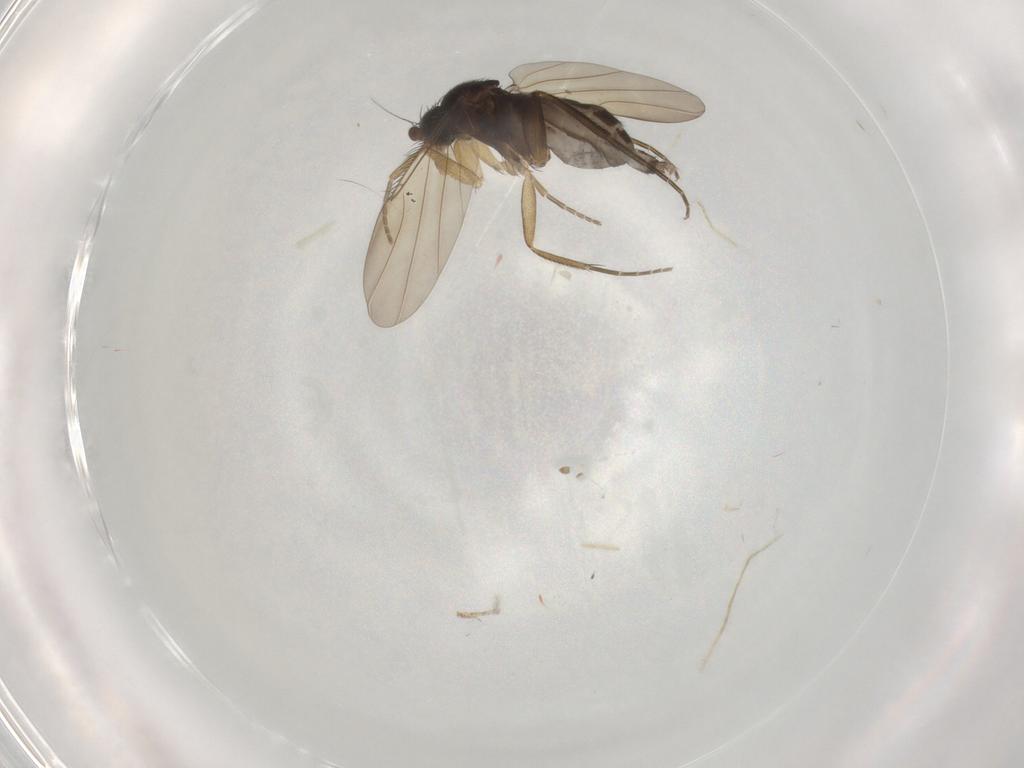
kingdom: Animalia
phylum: Arthropoda
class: Insecta
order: Diptera
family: Phoridae
